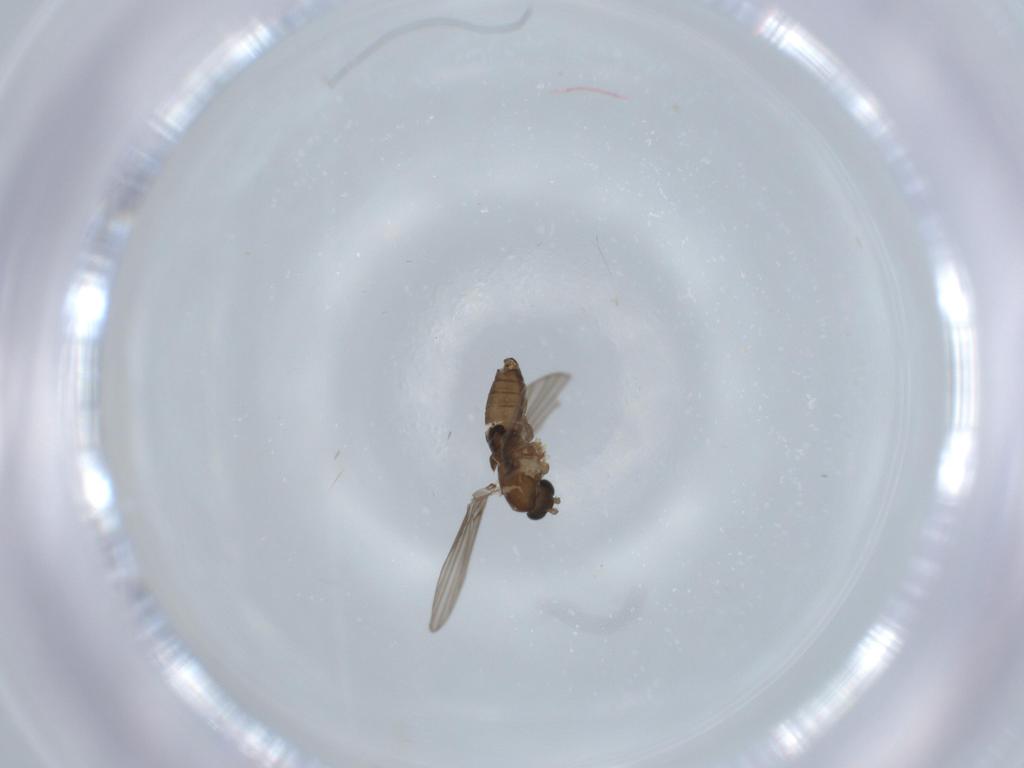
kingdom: Animalia
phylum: Arthropoda
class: Insecta
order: Diptera
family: Psychodidae
